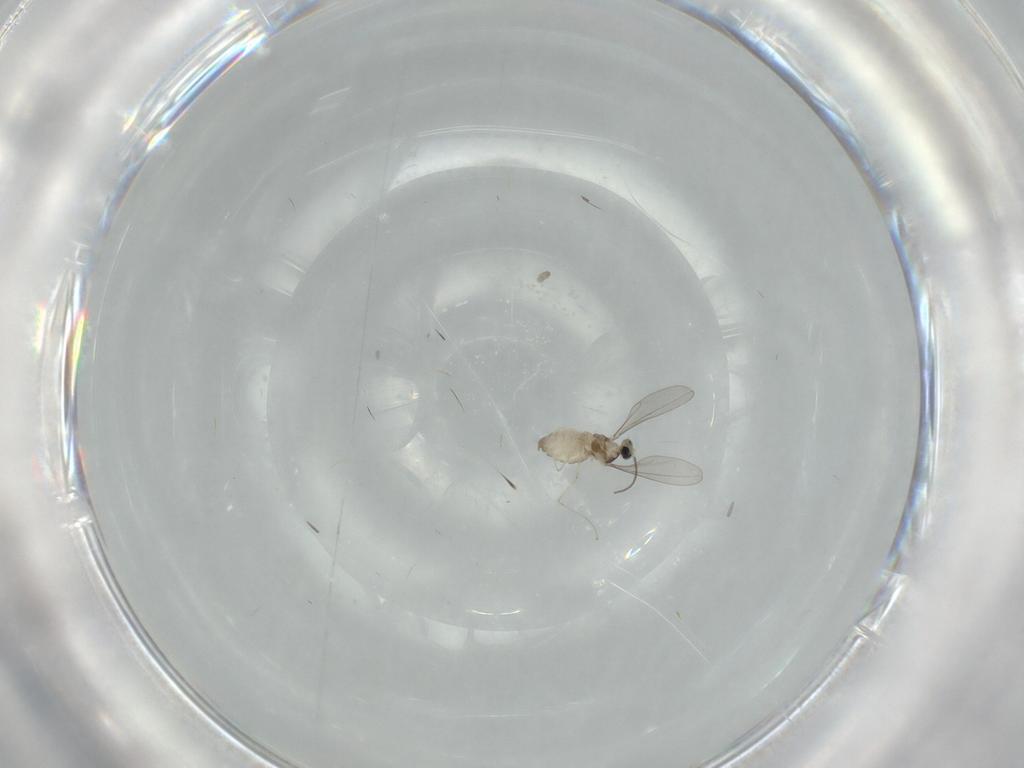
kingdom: Animalia
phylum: Arthropoda
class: Insecta
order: Diptera
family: Cecidomyiidae
